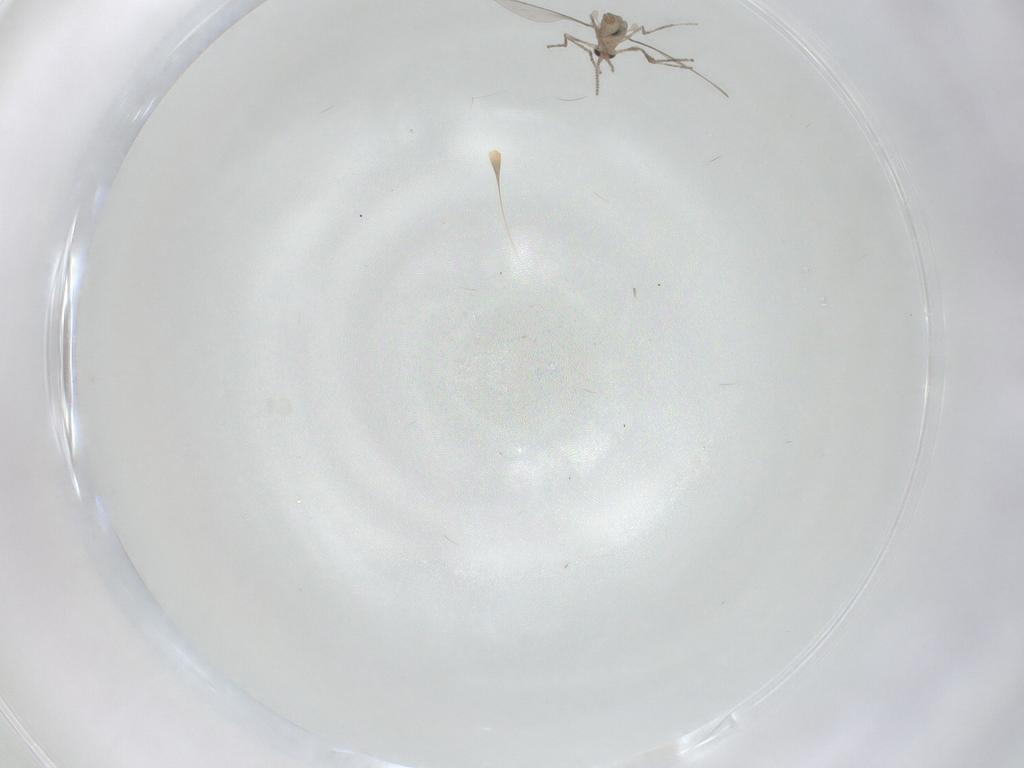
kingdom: Animalia
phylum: Arthropoda
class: Insecta
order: Diptera
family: Cecidomyiidae
